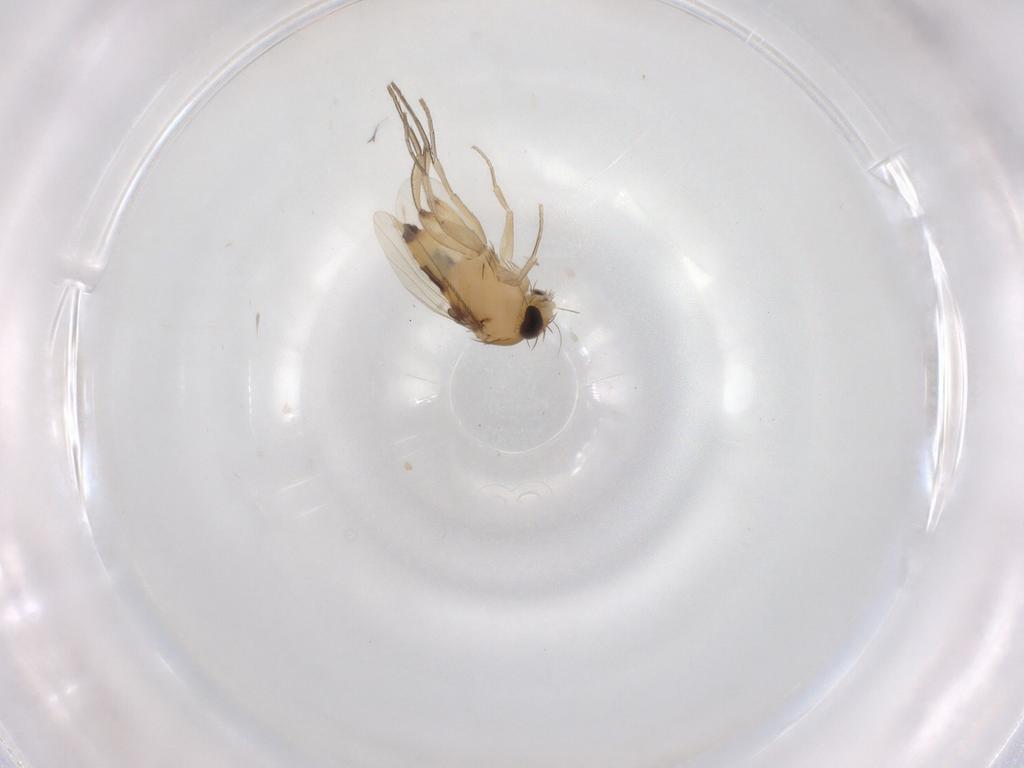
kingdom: Animalia
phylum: Arthropoda
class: Insecta
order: Diptera
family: Phoridae
